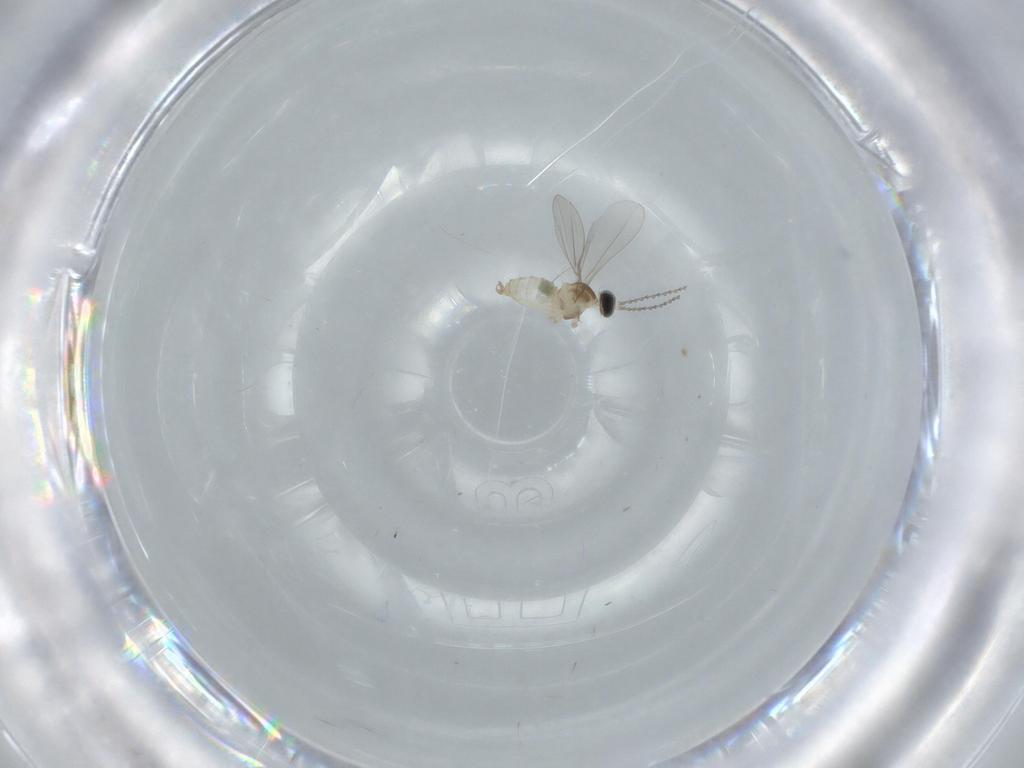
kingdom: Animalia
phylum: Arthropoda
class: Insecta
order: Diptera
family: Cecidomyiidae
